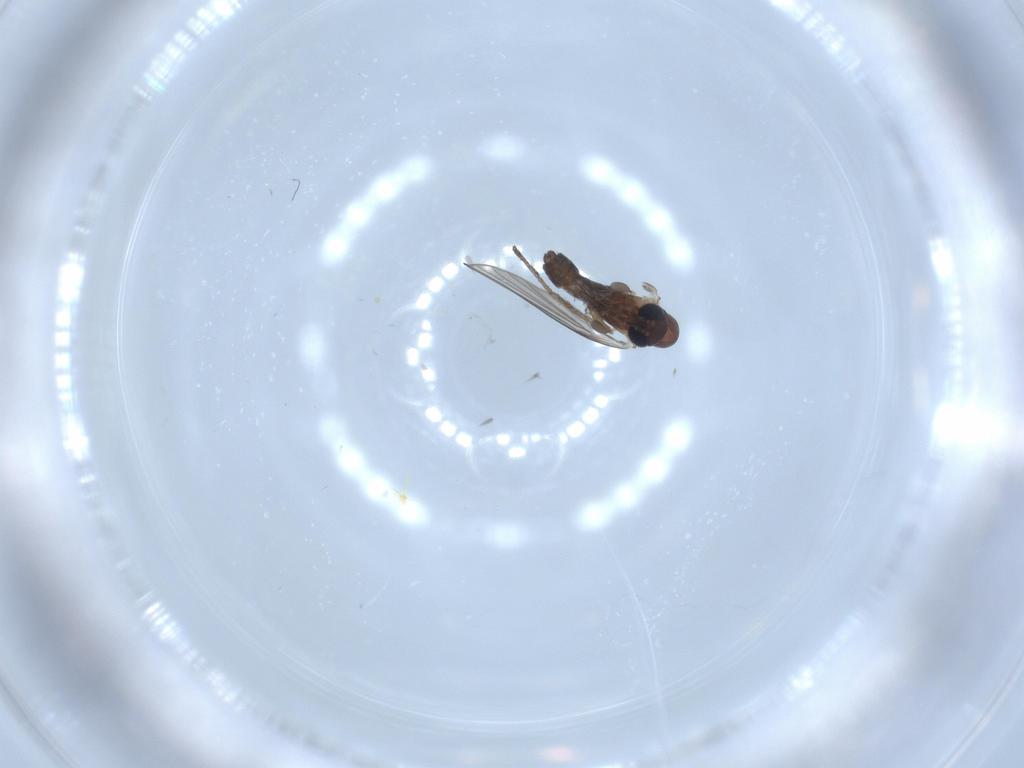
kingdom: Animalia
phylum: Arthropoda
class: Insecta
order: Diptera
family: Psychodidae
